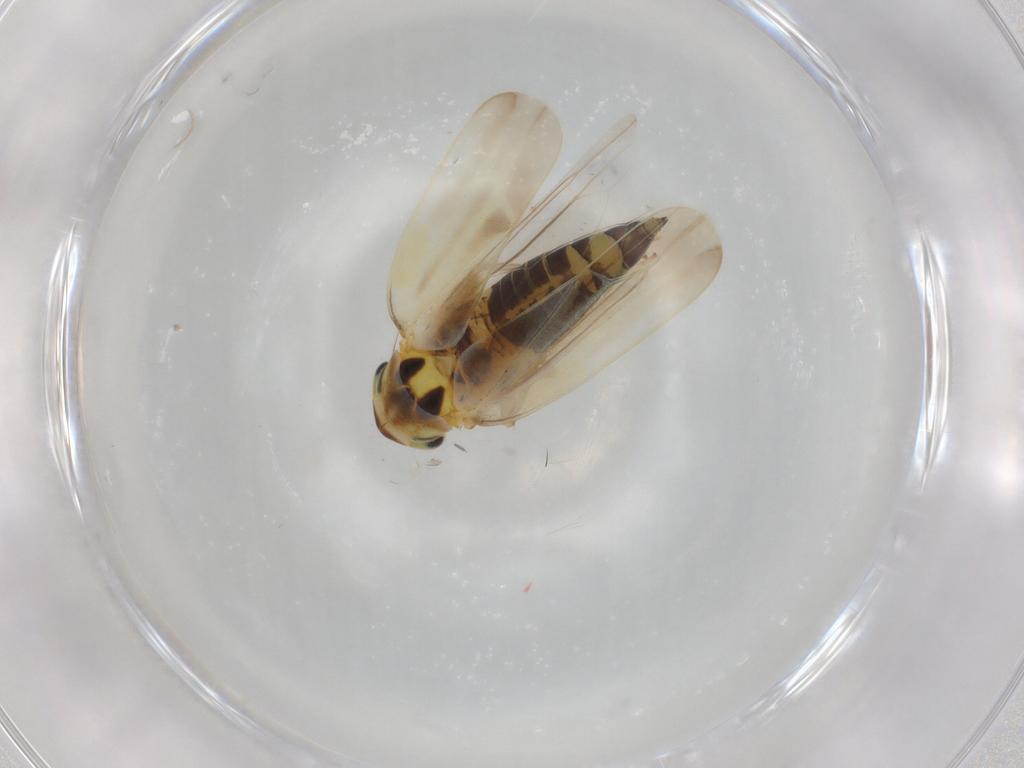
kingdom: Animalia
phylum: Arthropoda
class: Insecta
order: Hemiptera
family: Cicadellidae
